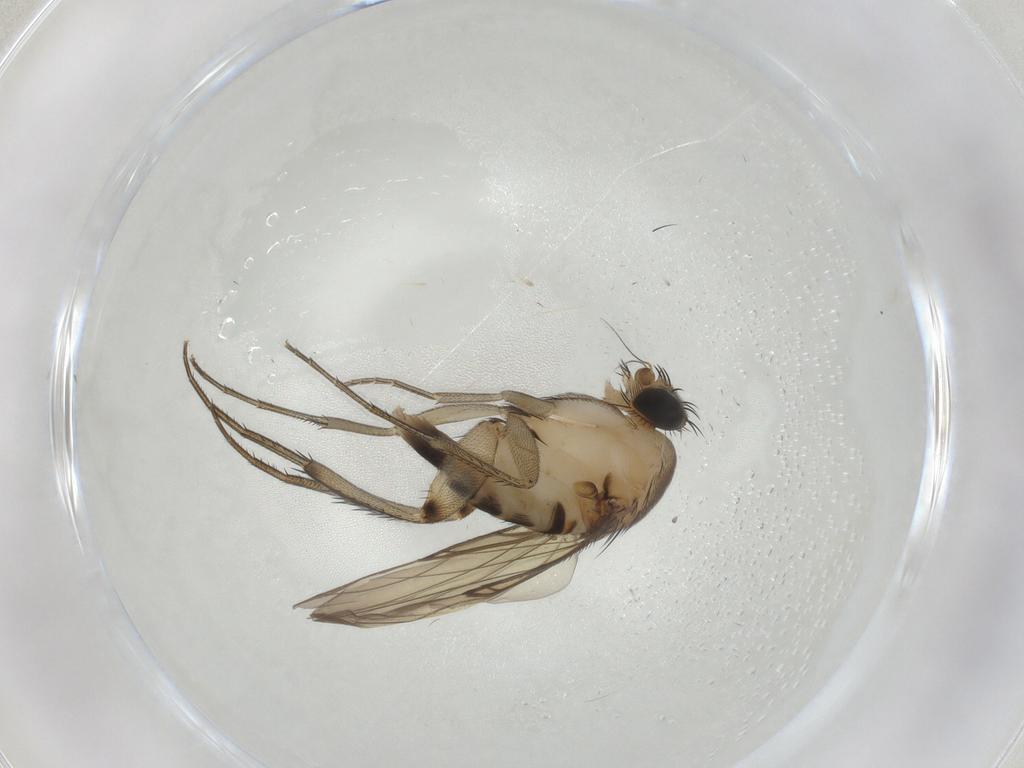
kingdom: Animalia
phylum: Arthropoda
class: Insecta
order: Diptera
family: Phoridae
